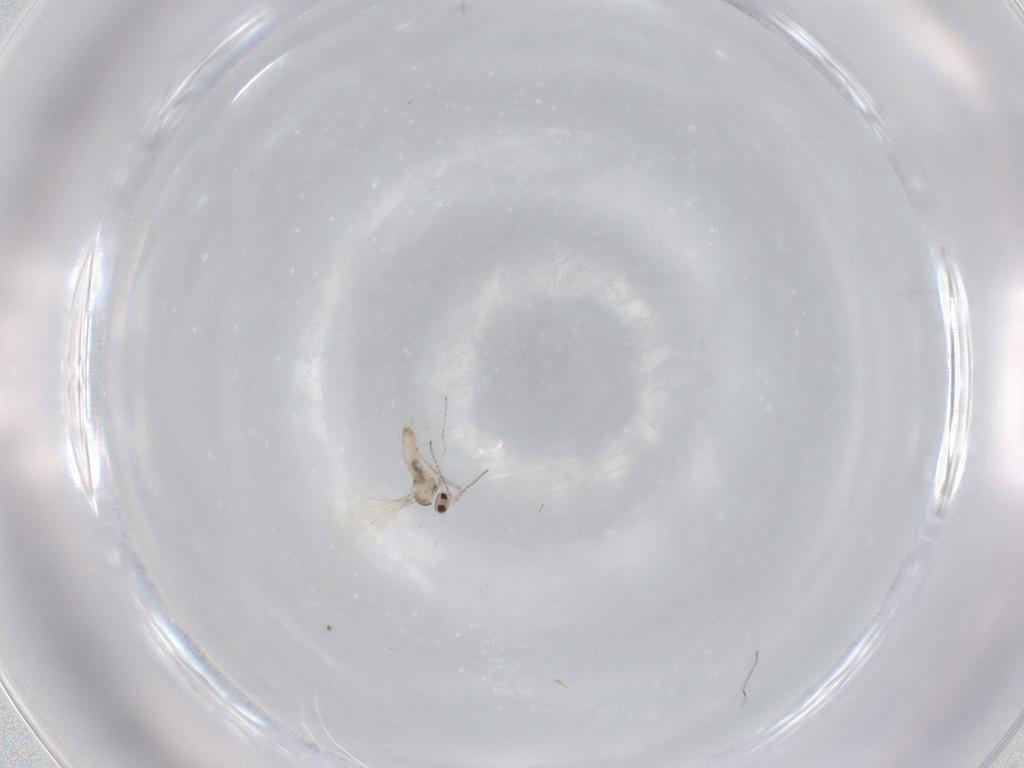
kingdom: Animalia
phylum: Arthropoda
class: Insecta
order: Diptera
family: Cecidomyiidae
